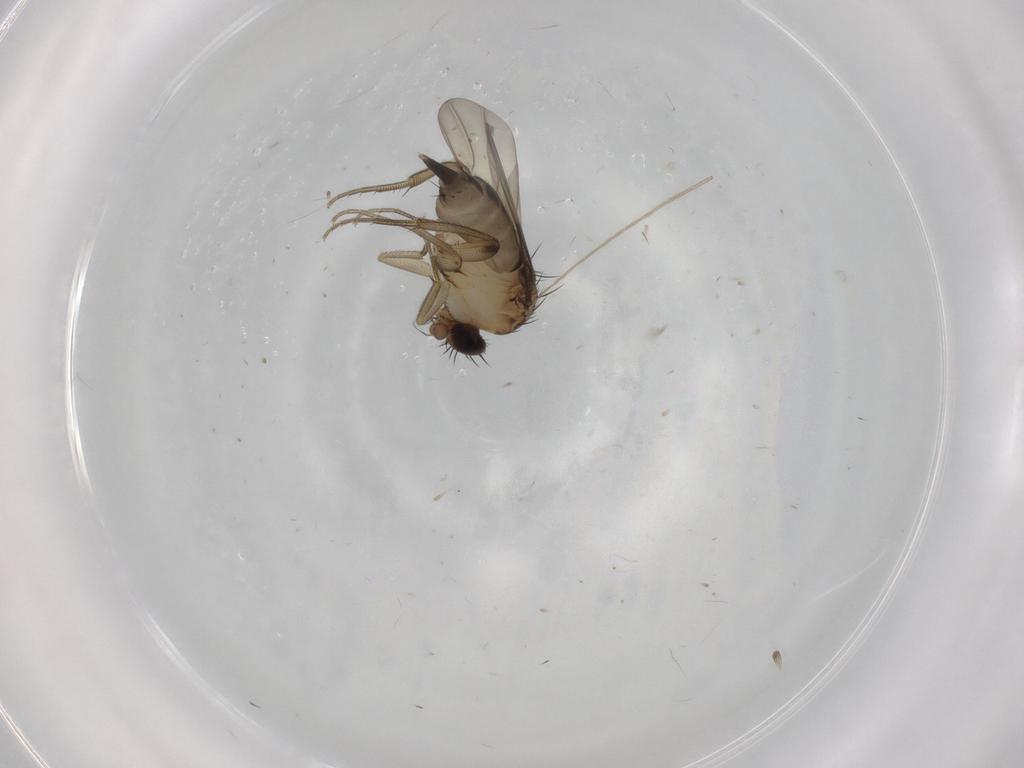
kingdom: Animalia
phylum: Arthropoda
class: Insecta
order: Diptera
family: Phoridae
